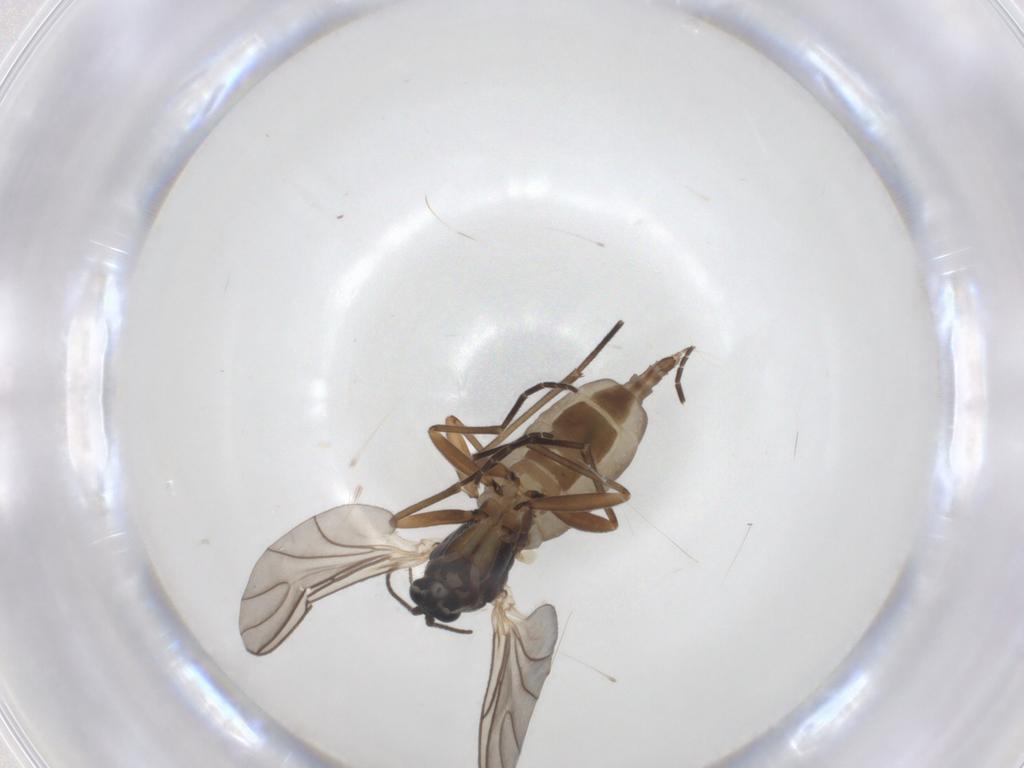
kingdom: Animalia
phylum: Arthropoda
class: Insecta
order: Diptera
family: Sciaridae
